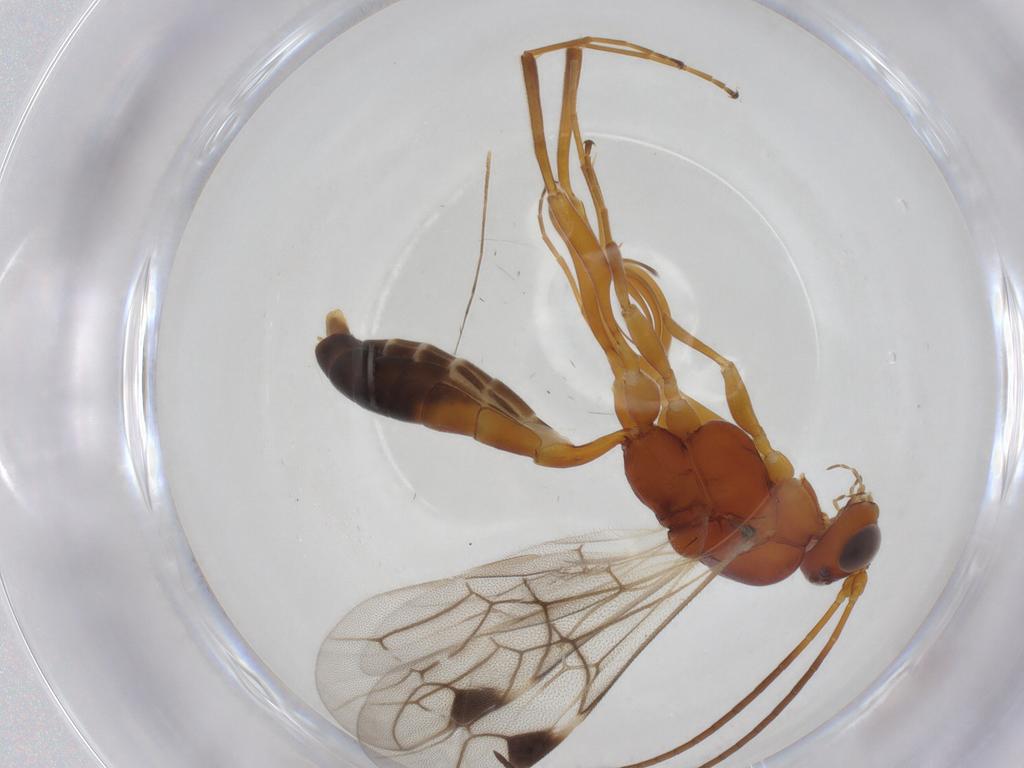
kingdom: Animalia
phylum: Arthropoda
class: Insecta
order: Hymenoptera
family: Ichneumonidae
